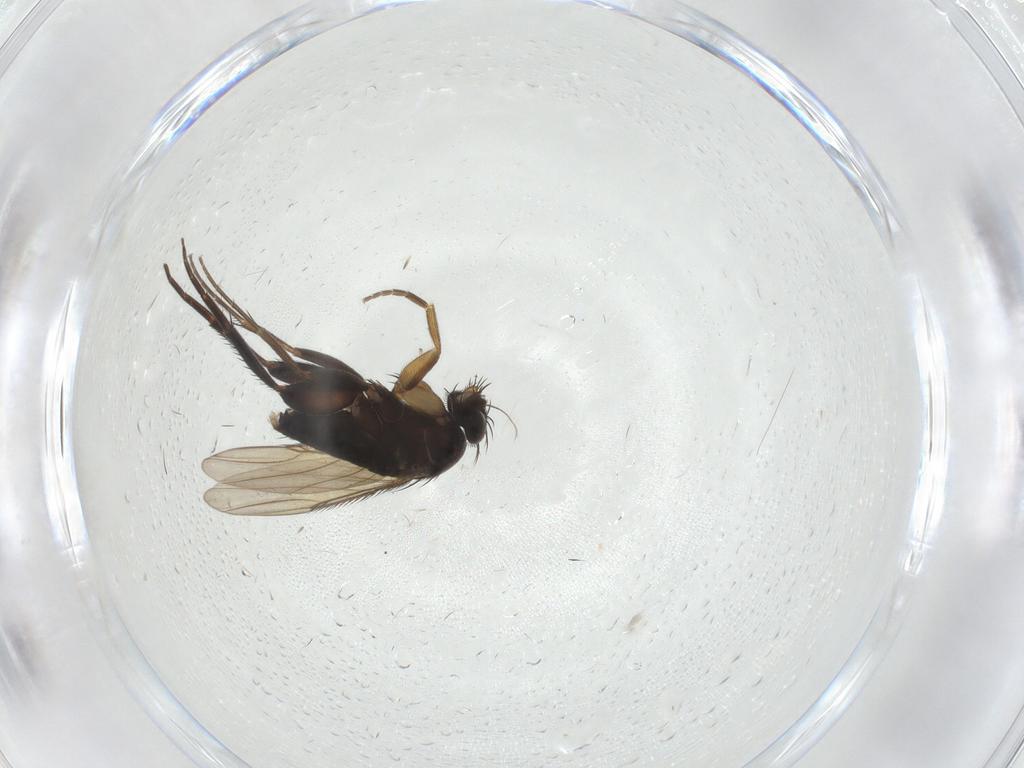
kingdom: Animalia
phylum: Arthropoda
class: Insecta
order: Diptera
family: Phoridae
